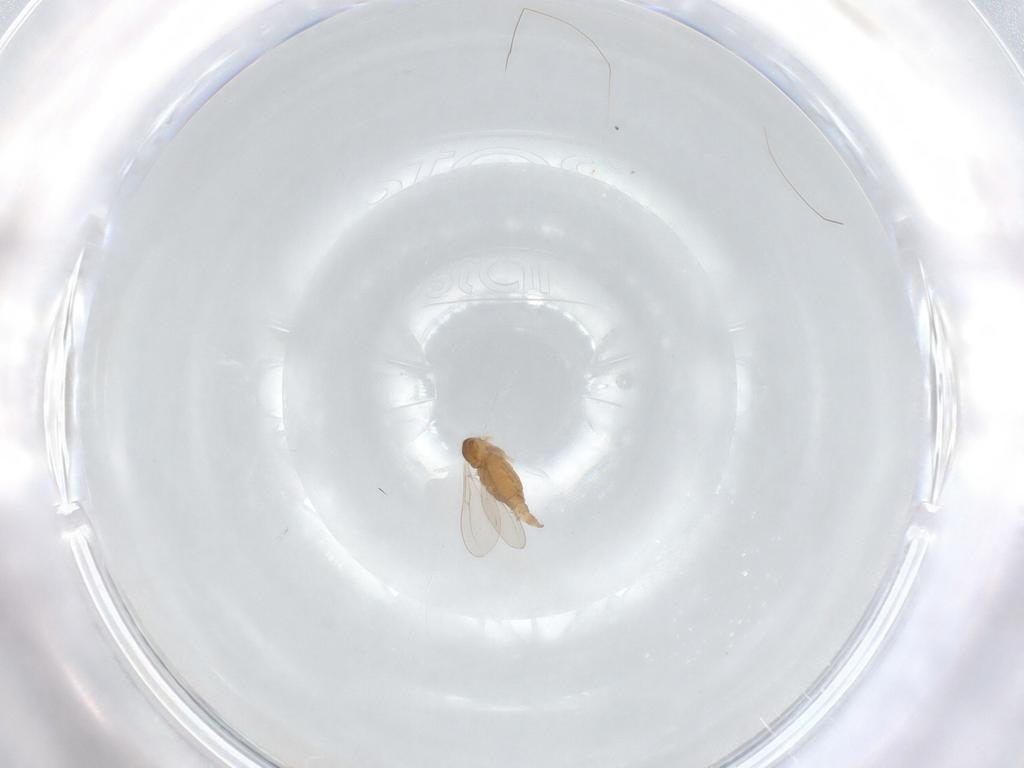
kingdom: Animalia
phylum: Arthropoda
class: Insecta
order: Diptera
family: Cecidomyiidae
